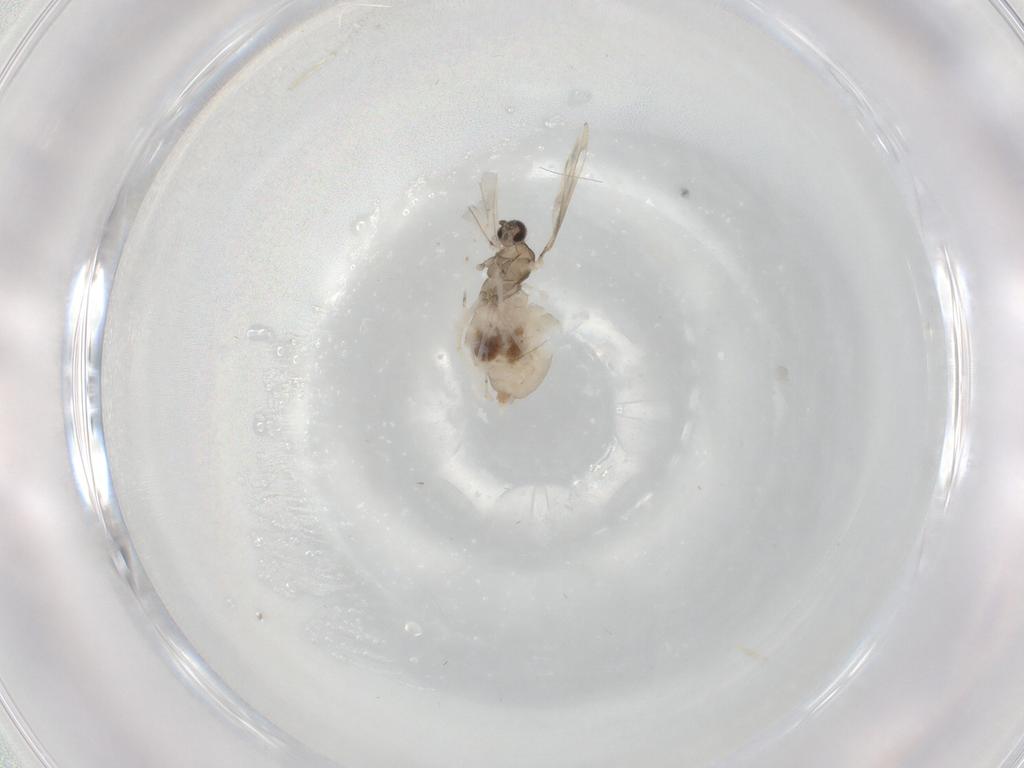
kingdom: Animalia
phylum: Arthropoda
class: Insecta
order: Diptera
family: Cecidomyiidae
